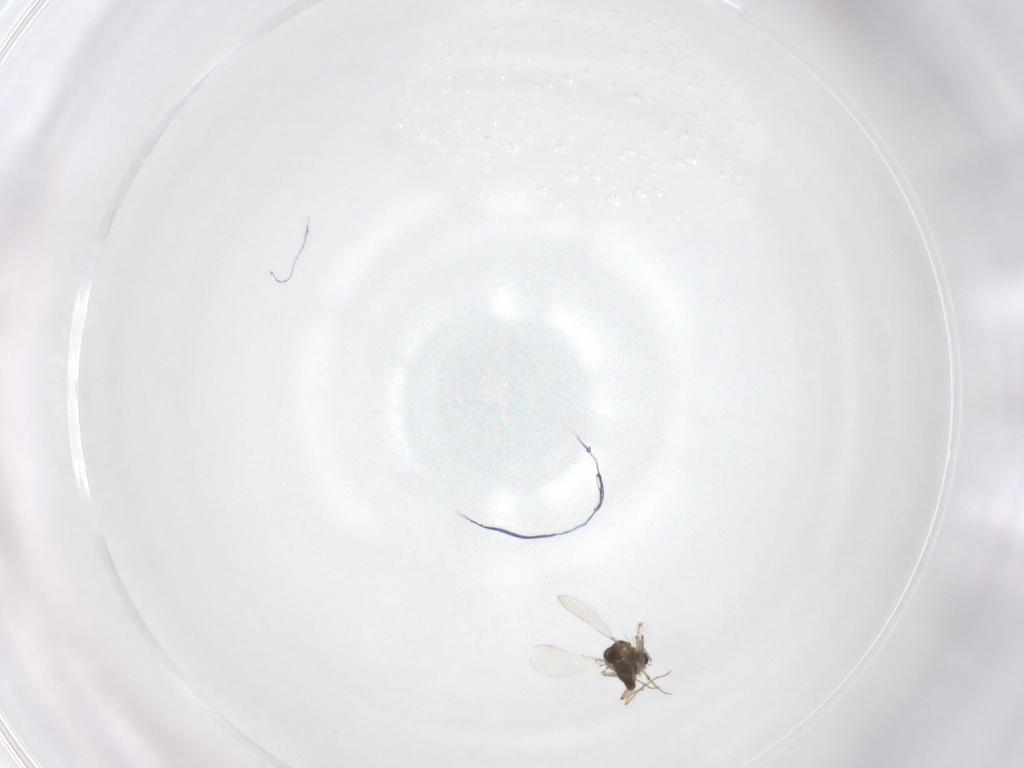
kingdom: Animalia
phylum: Arthropoda
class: Insecta
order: Diptera
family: Chironomidae
